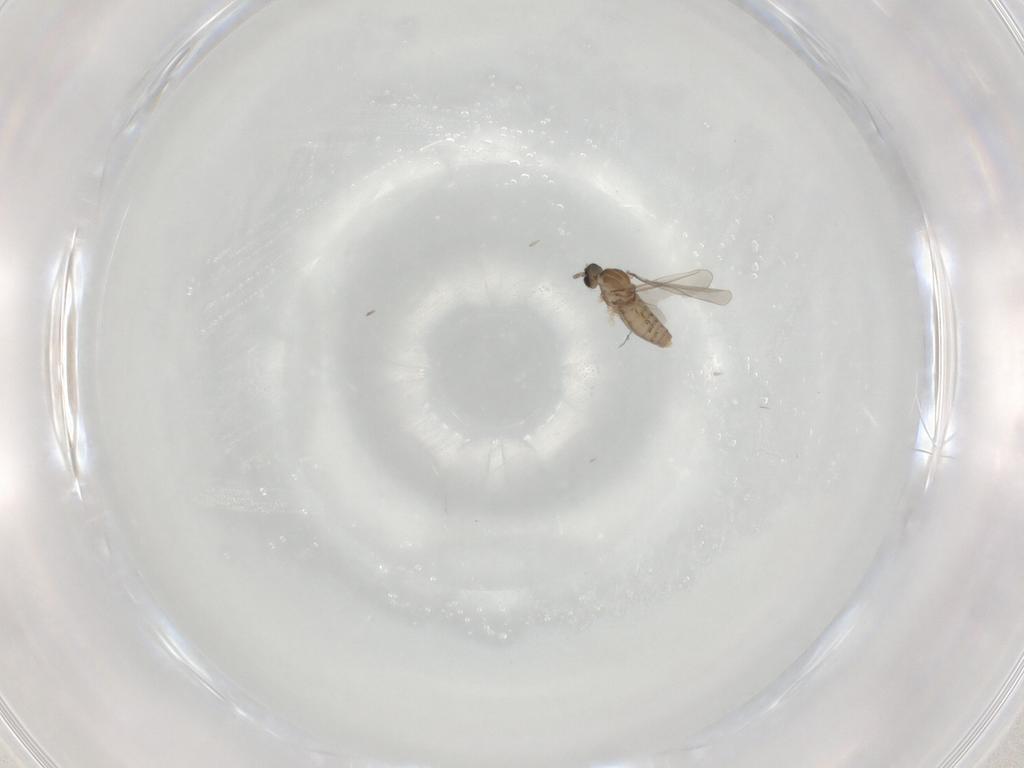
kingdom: Animalia
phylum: Arthropoda
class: Insecta
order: Diptera
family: Cecidomyiidae
